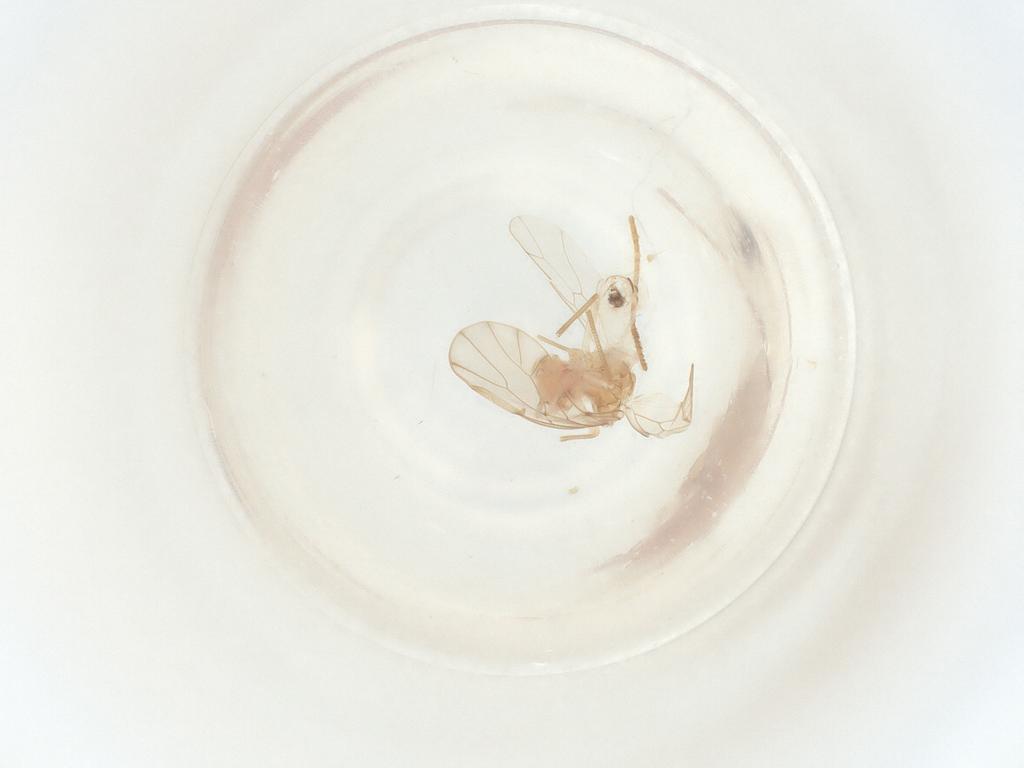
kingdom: Animalia
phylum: Arthropoda
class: Insecta
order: Lepidoptera
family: Tortricidae
